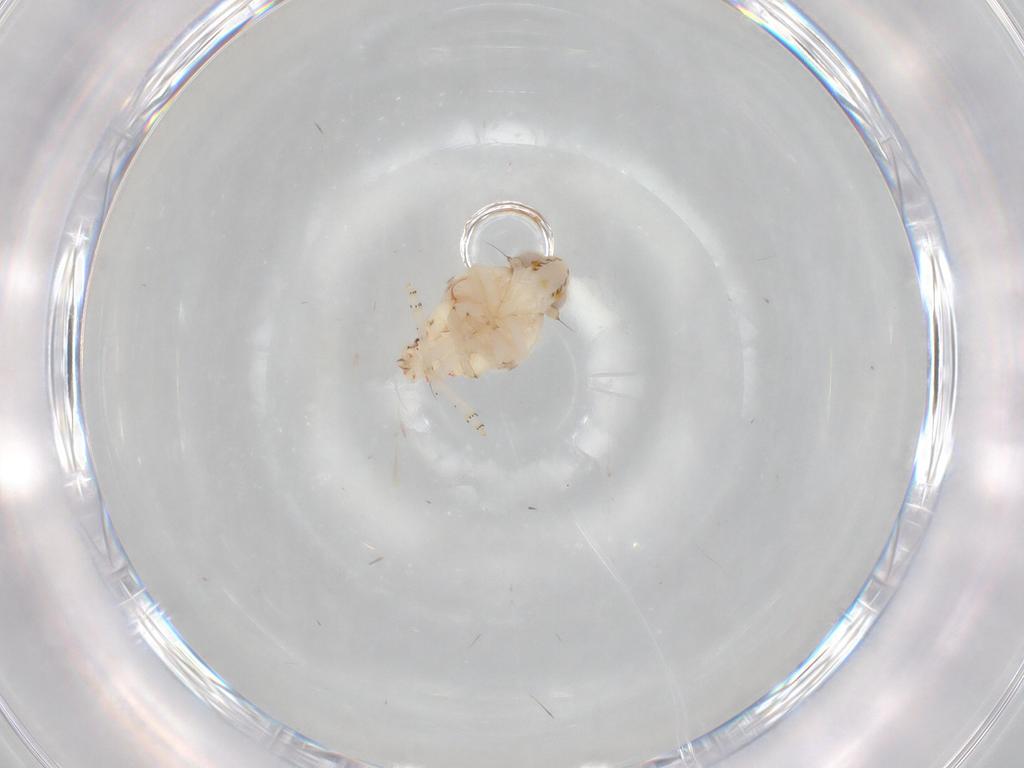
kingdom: Animalia
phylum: Arthropoda
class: Insecta
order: Hemiptera
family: Nogodinidae
